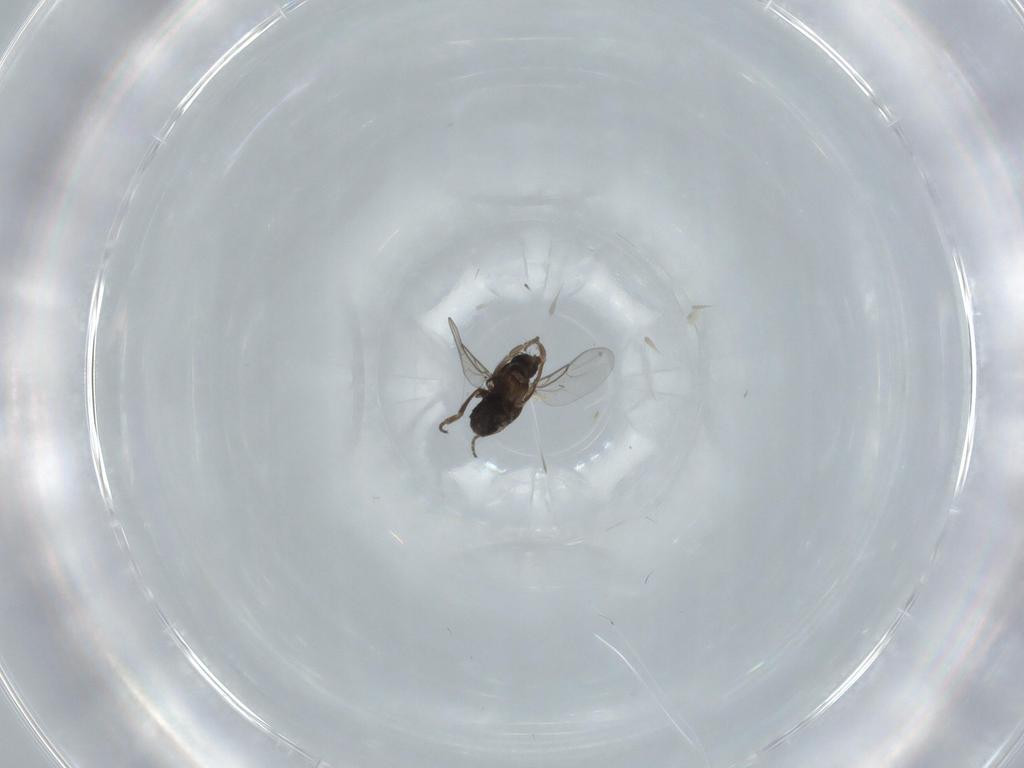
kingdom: Animalia
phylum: Arthropoda
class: Insecta
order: Diptera
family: Phoridae
